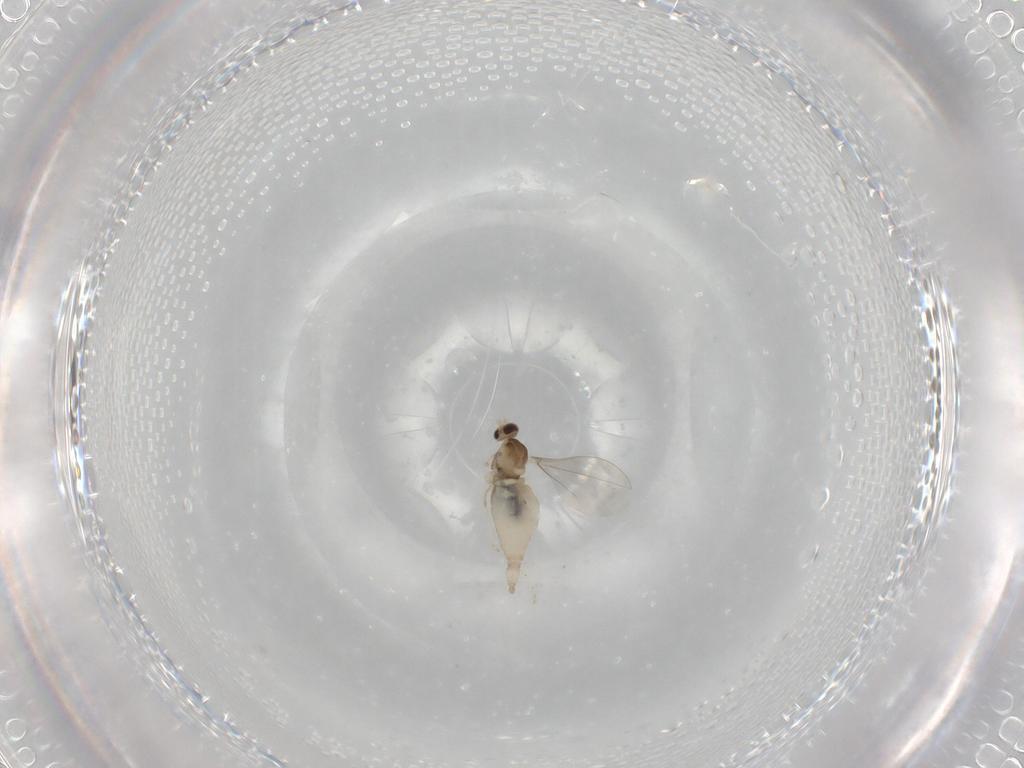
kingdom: Animalia
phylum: Arthropoda
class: Insecta
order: Diptera
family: Cecidomyiidae
